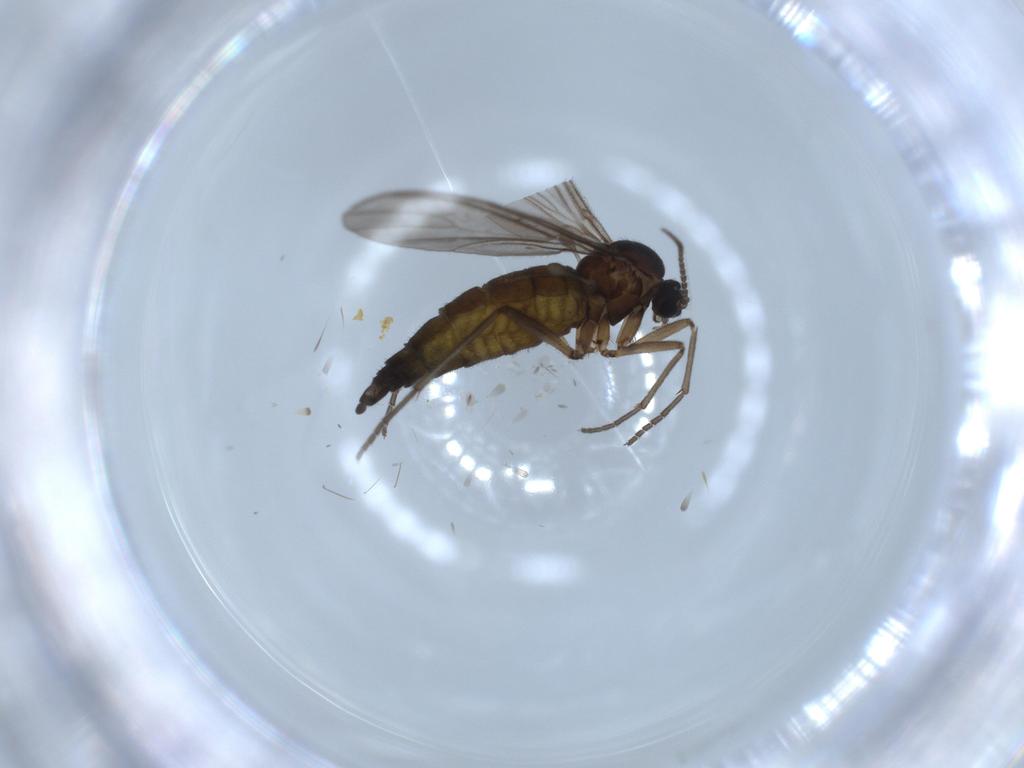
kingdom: Animalia
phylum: Arthropoda
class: Insecta
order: Diptera
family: Sciaridae
